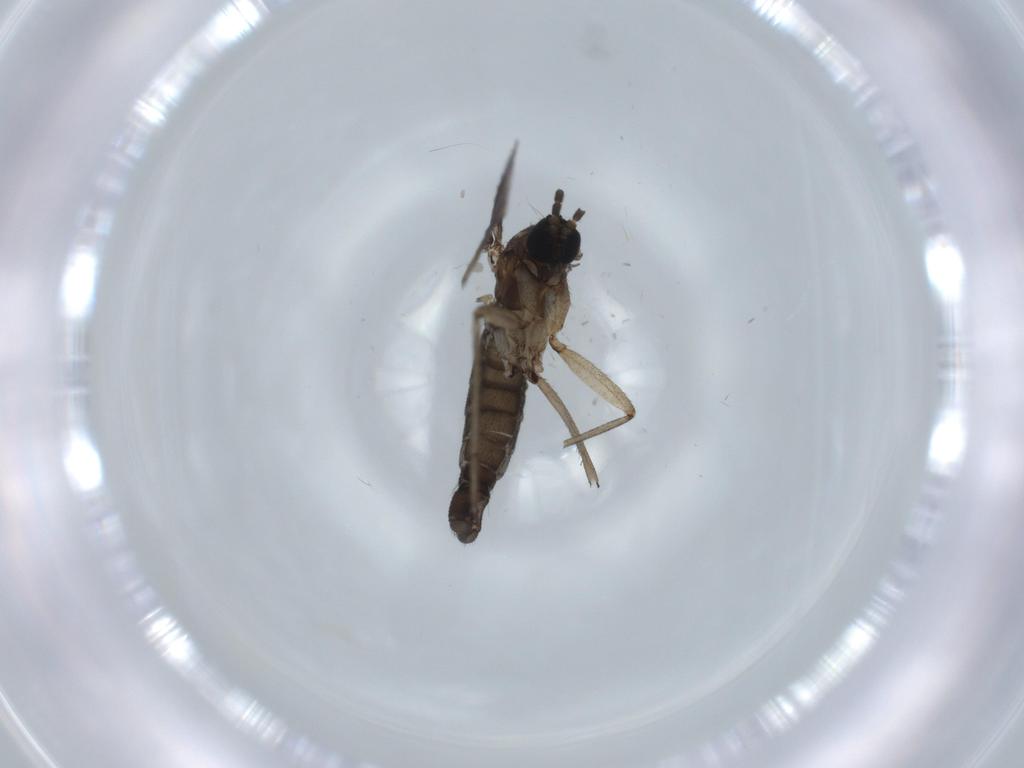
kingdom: Animalia
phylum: Arthropoda
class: Insecta
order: Diptera
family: Sciaridae
